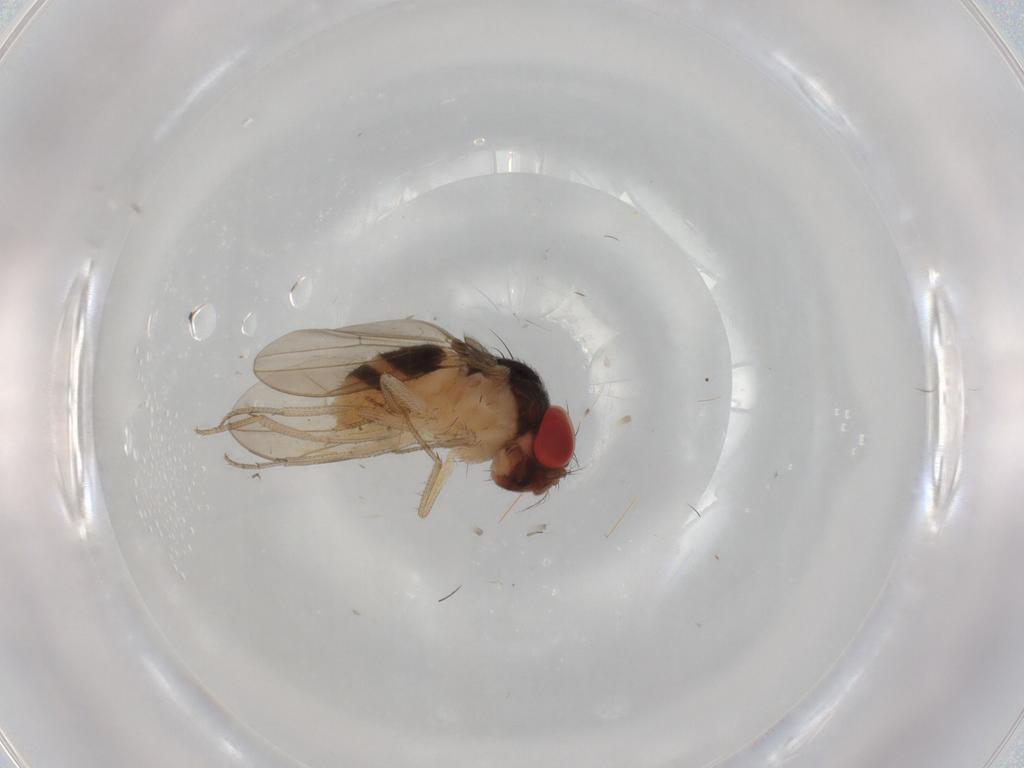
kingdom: Animalia
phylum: Arthropoda
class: Insecta
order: Diptera
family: Drosophilidae
